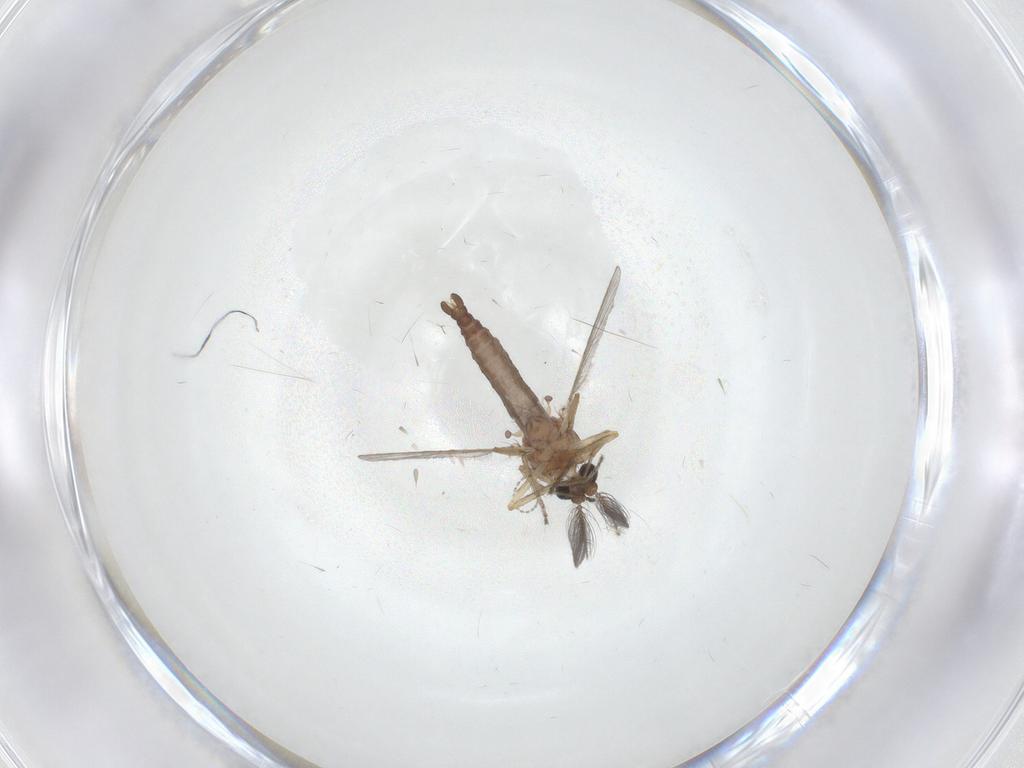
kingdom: Animalia
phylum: Arthropoda
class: Insecta
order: Diptera
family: Ceratopogonidae
